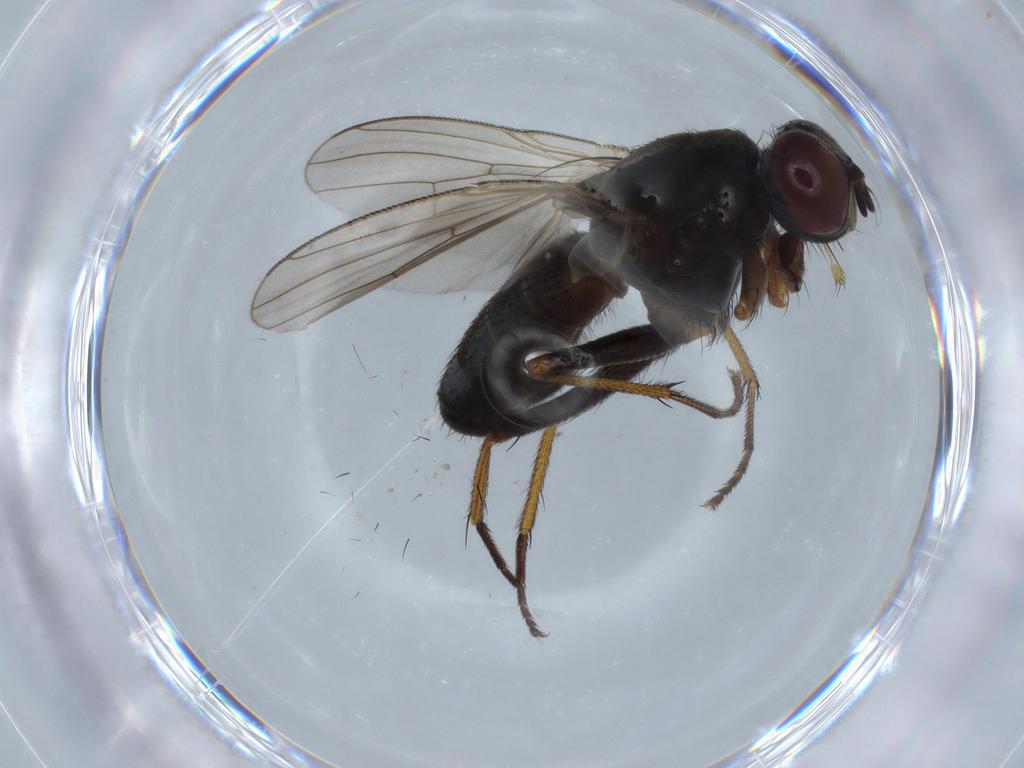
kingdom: Animalia
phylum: Arthropoda
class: Insecta
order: Diptera
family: Muscidae
